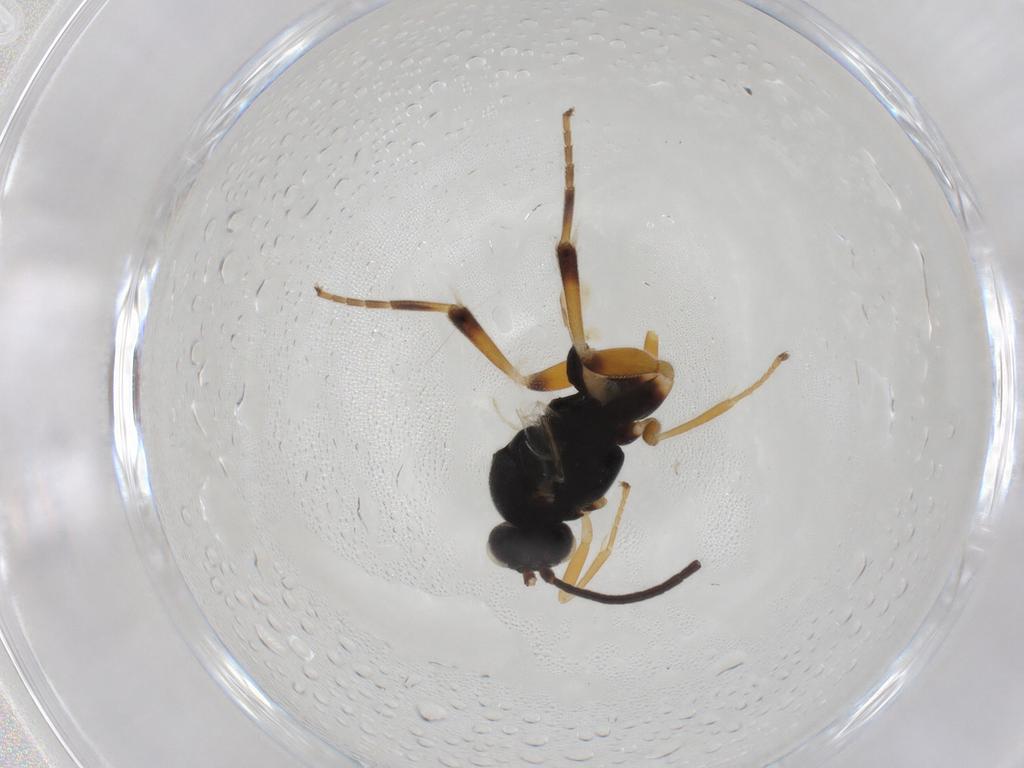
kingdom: Animalia
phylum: Arthropoda
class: Insecta
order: Hymenoptera
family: Braconidae
